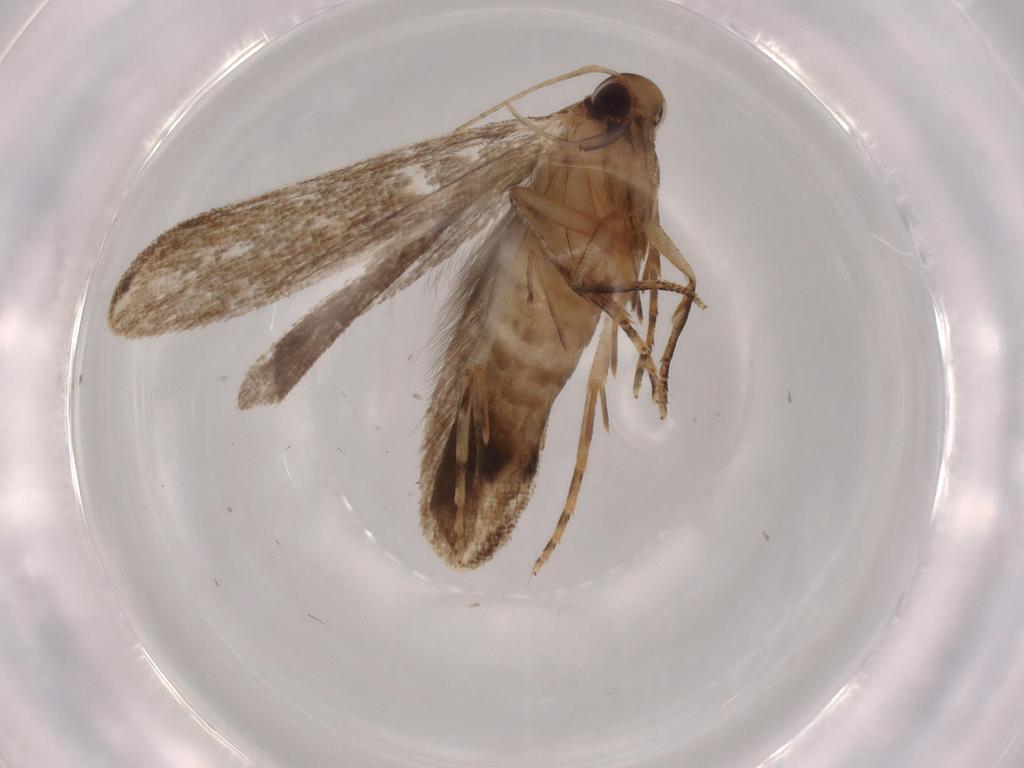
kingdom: Animalia
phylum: Arthropoda
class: Insecta
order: Lepidoptera
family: Gelechiidae
